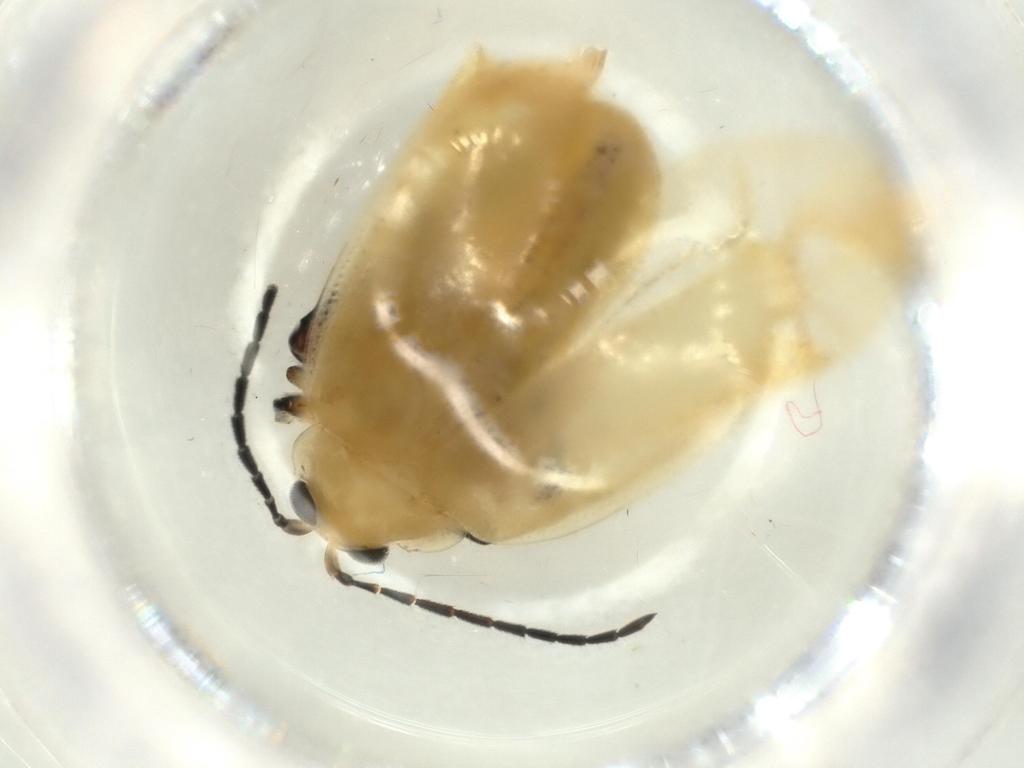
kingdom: Animalia
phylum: Arthropoda
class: Insecta
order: Coleoptera
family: Chrysomelidae
